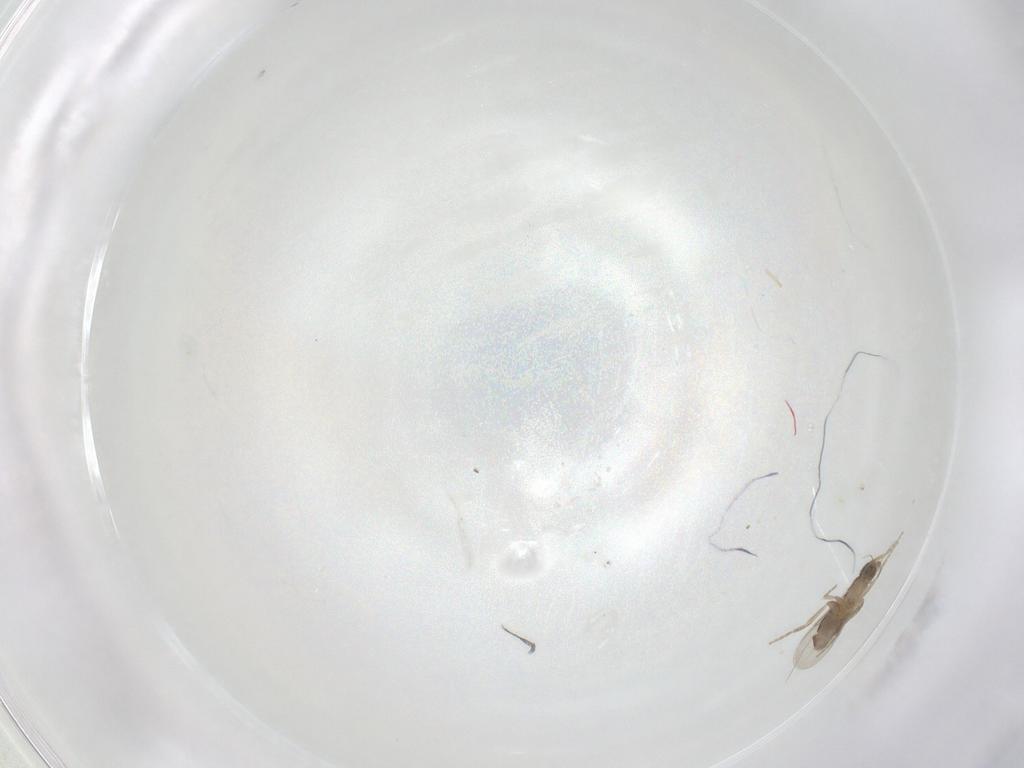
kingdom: Animalia
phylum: Arthropoda
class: Insecta
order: Diptera
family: Phoridae
